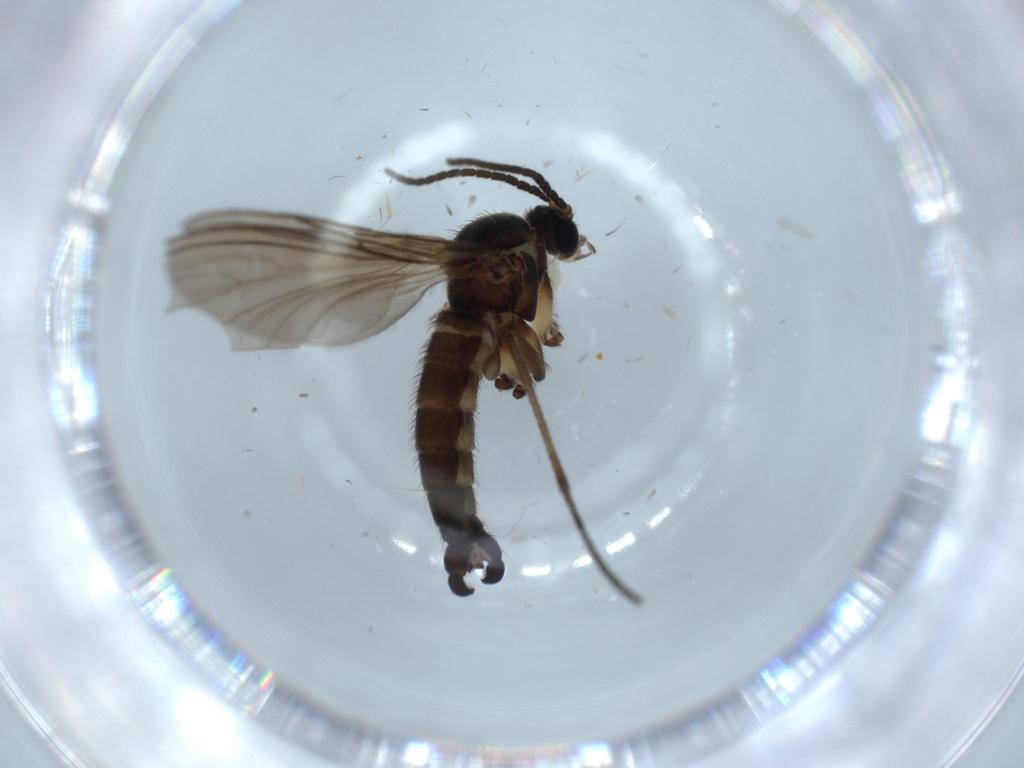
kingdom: Animalia
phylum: Arthropoda
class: Insecta
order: Diptera
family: Sciaridae
